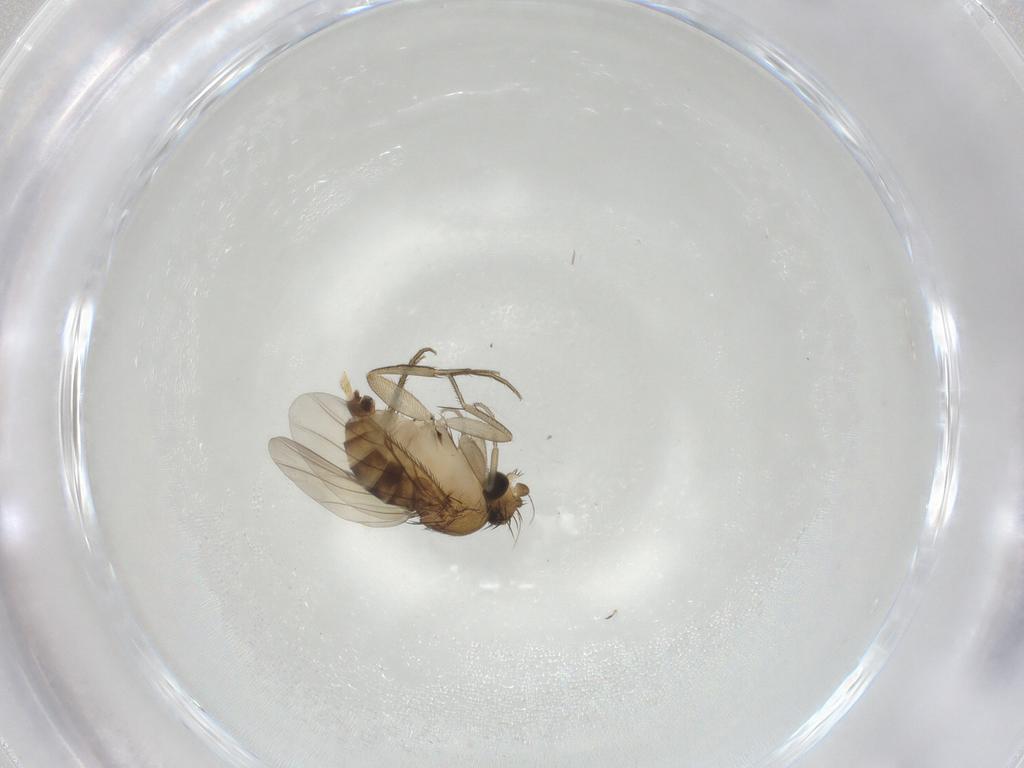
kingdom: Animalia
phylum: Arthropoda
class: Insecta
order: Diptera
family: Phoridae
